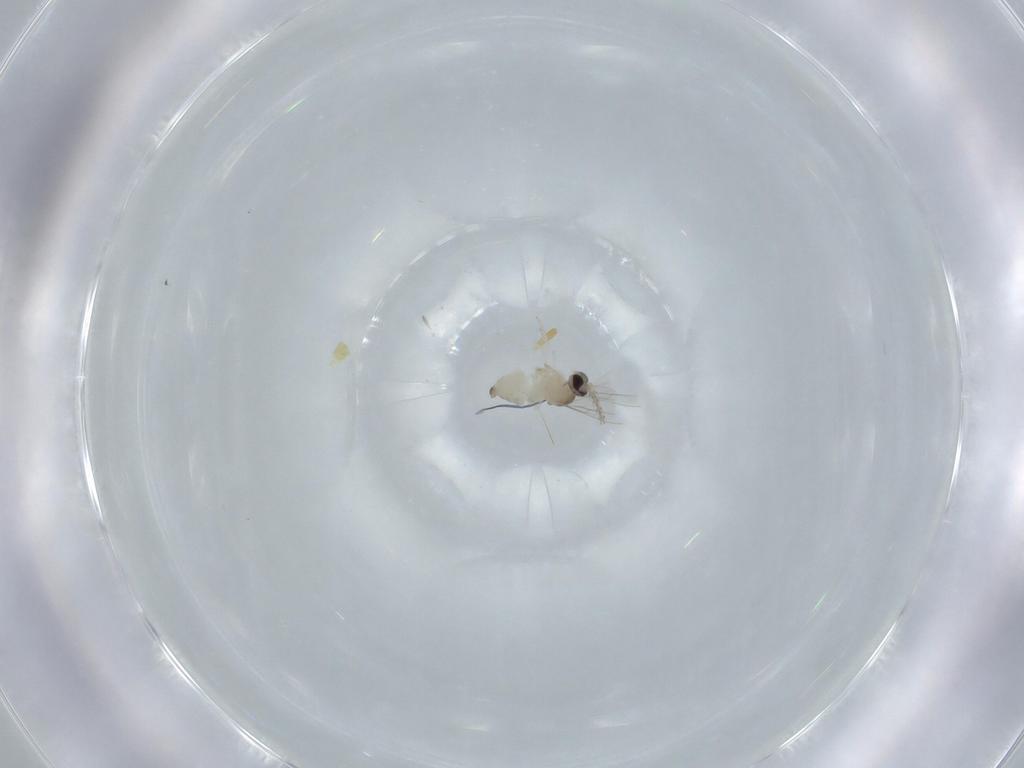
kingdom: Animalia
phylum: Arthropoda
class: Insecta
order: Diptera
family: Cecidomyiidae
